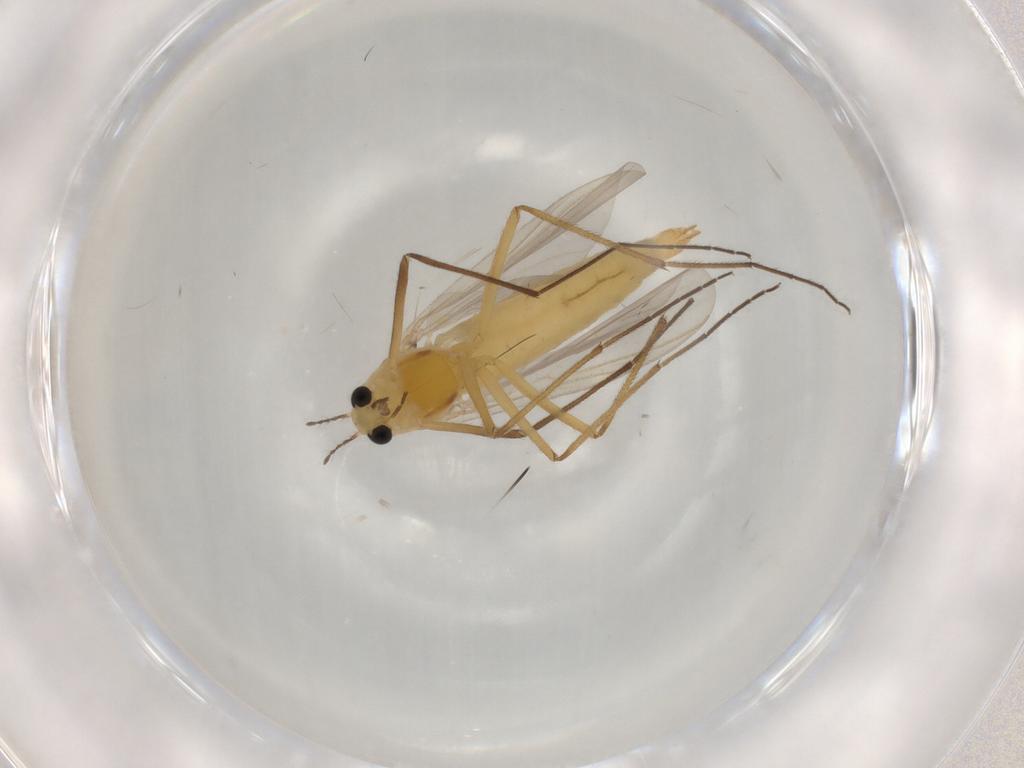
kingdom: Animalia
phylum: Arthropoda
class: Insecta
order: Diptera
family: Chironomidae
